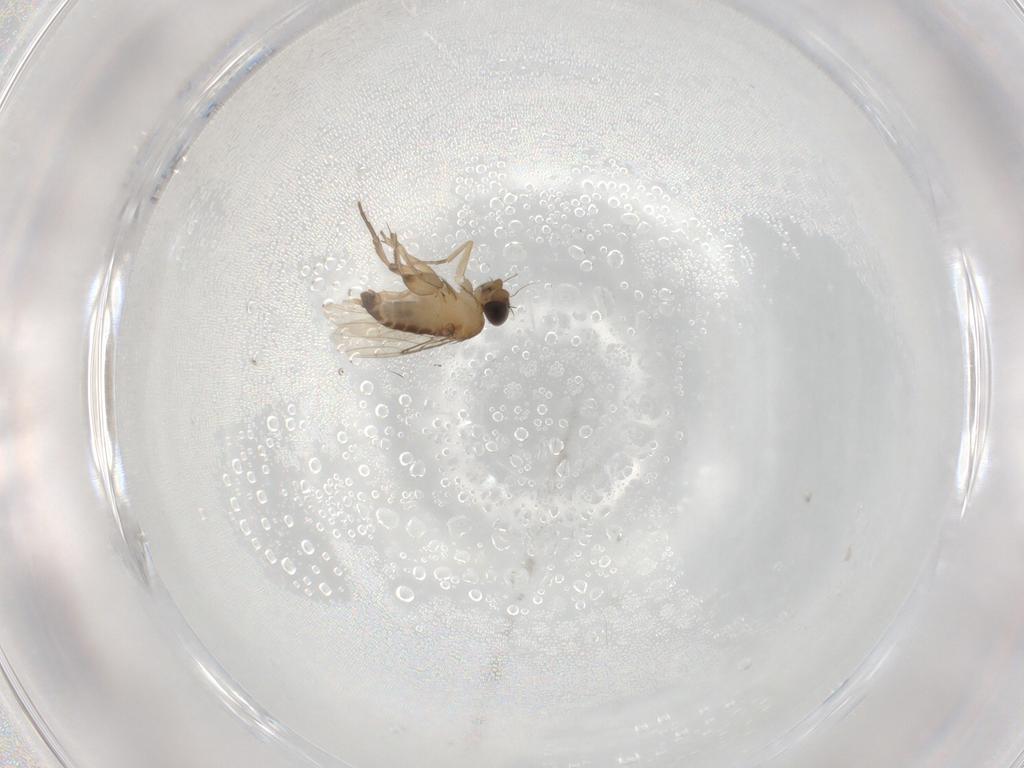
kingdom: Animalia
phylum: Arthropoda
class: Insecta
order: Diptera
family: Phoridae
